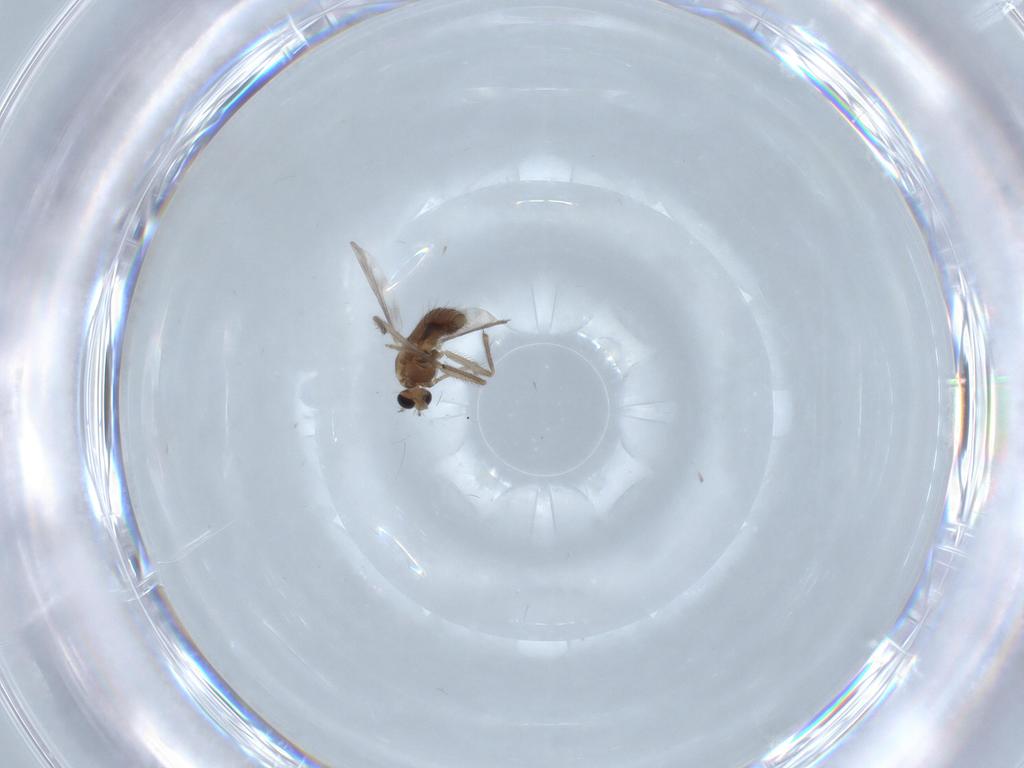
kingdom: Animalia
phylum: Arthropoda
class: Insecta
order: Diptera
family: Chironomidae
